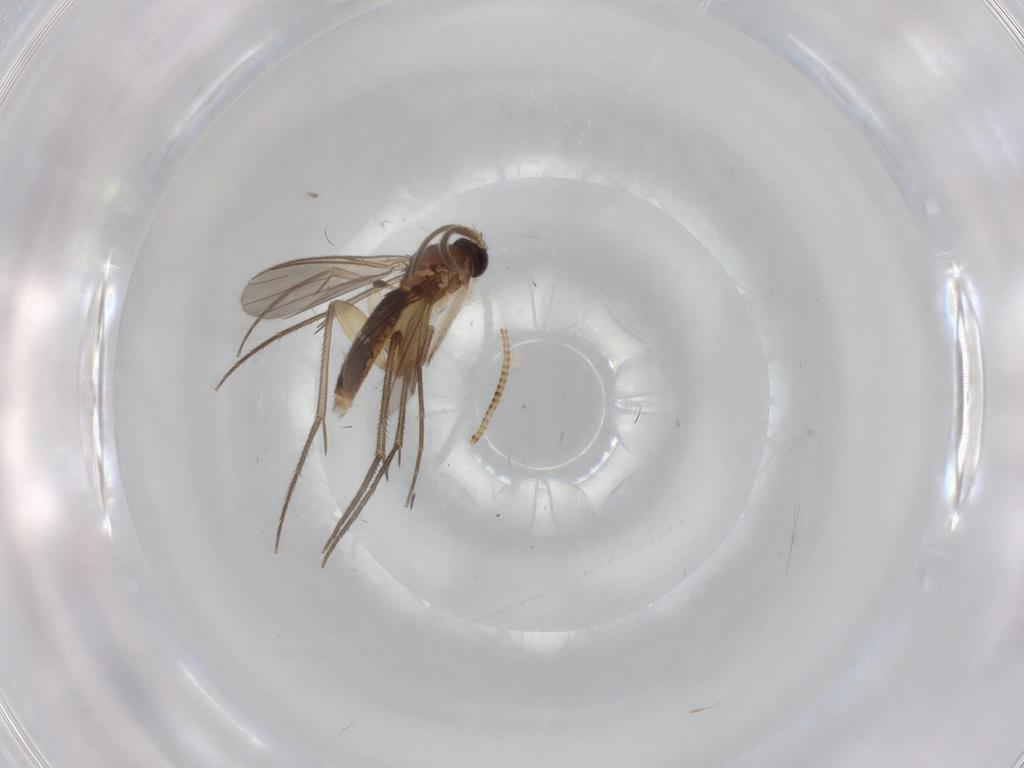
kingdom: Animalia
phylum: Arthropoda
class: Insecta
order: Diptera
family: Mycetophilidae
